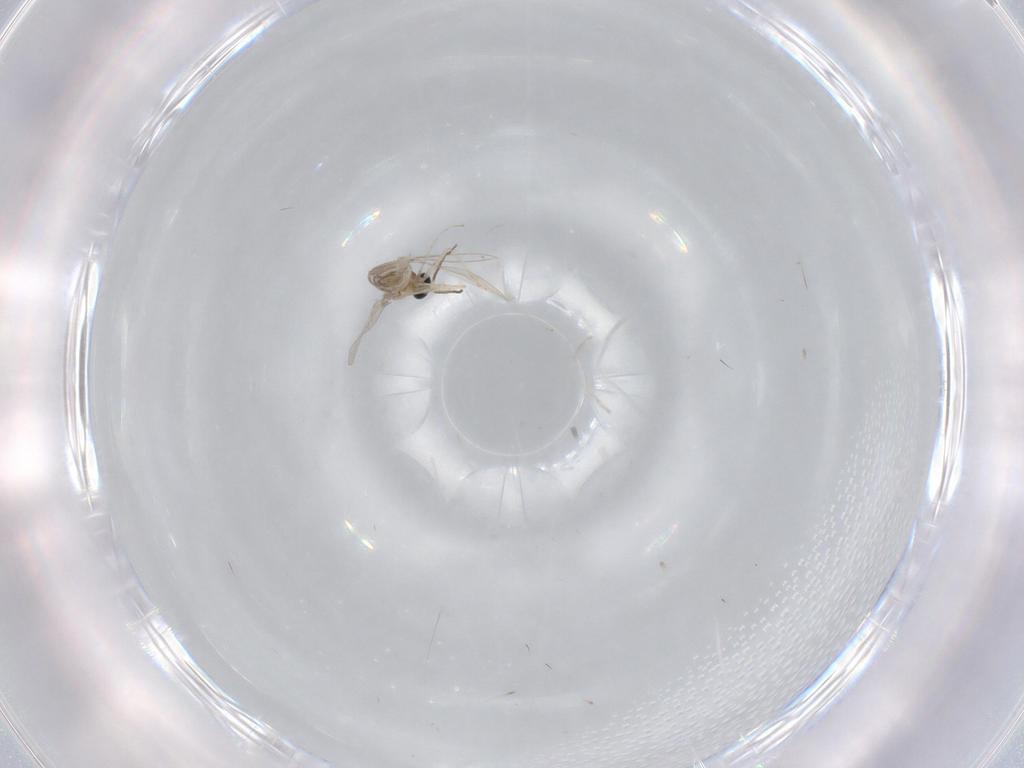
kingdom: Animalia
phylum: Arthropoda
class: Insecta
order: Diptera
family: Cecidomyiidae
